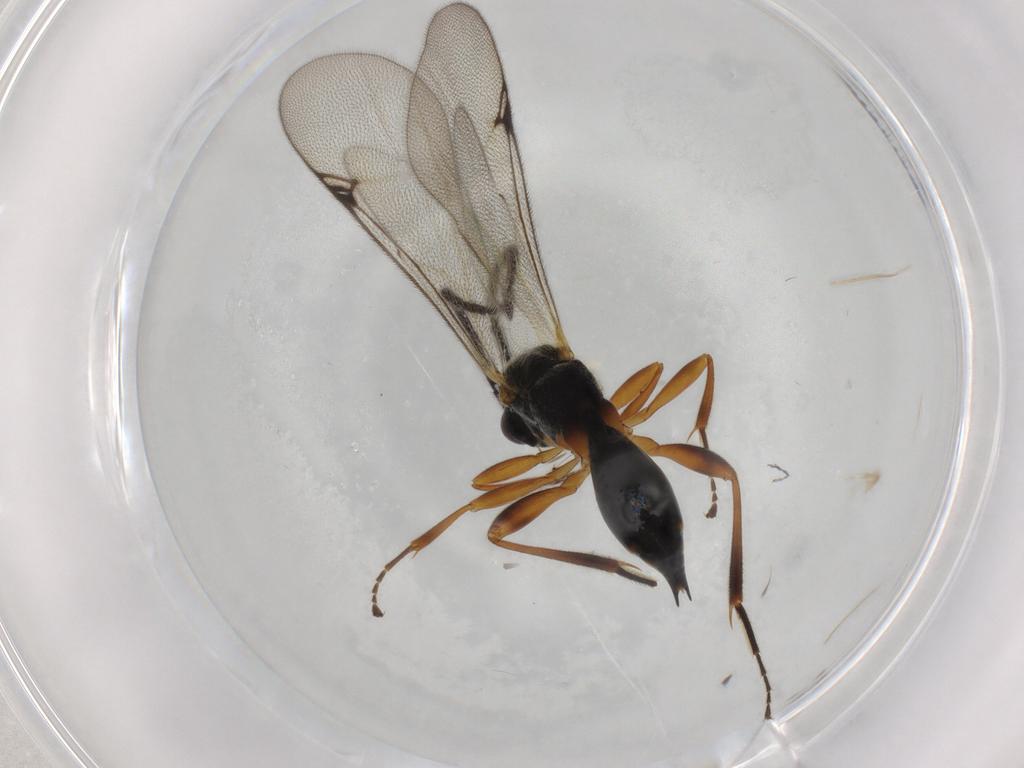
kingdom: Animalia
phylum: Arthropoda
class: Insecta
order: Hymenoptera
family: Proctotrupidae
